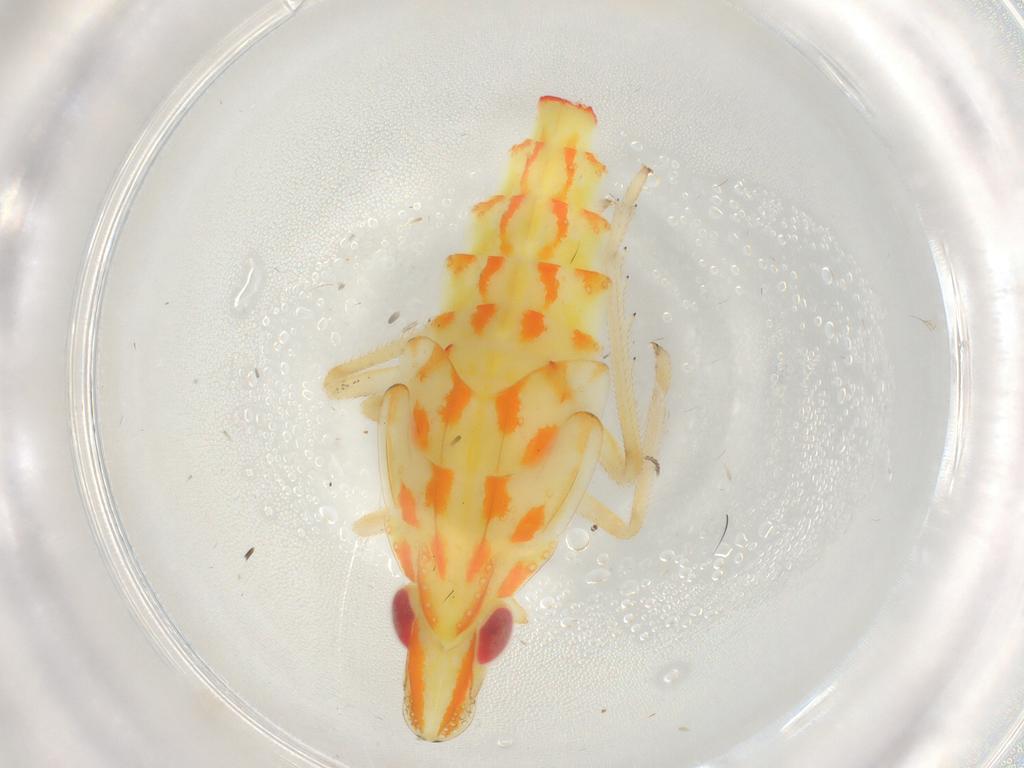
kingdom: Animalia
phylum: Arthropoda
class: Insecta
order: Hemiptera
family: Tropiduchidae
